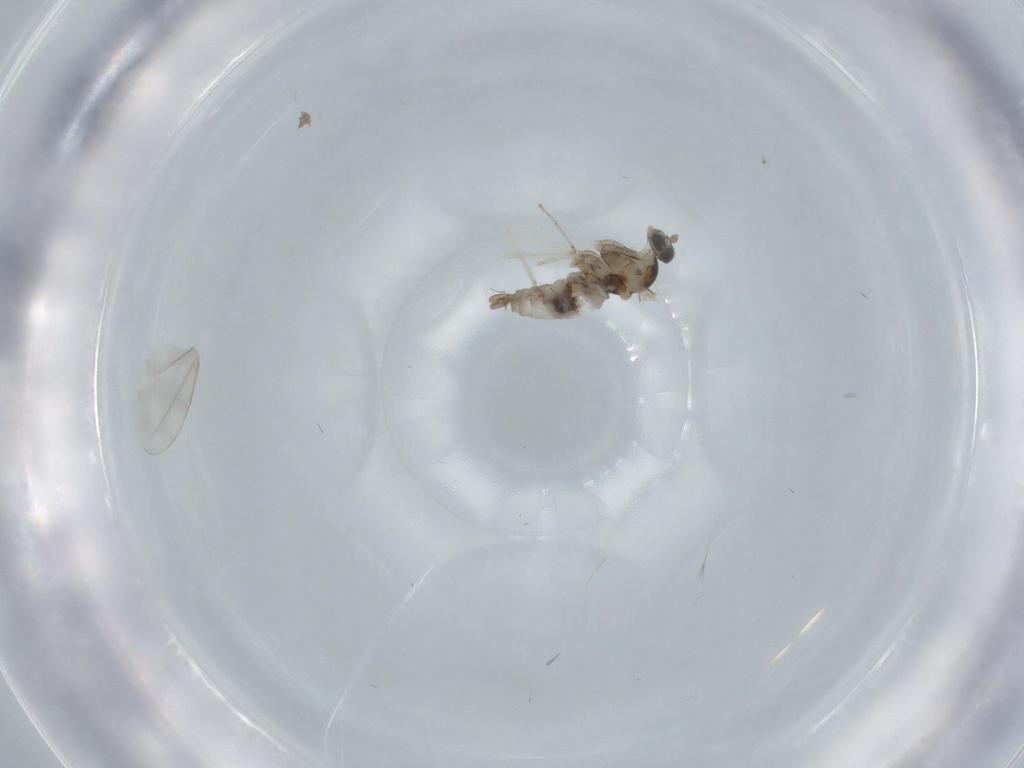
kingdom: Animalia
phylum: Arthropoda
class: Insecta
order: Diptera
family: Cecidomyiidae
